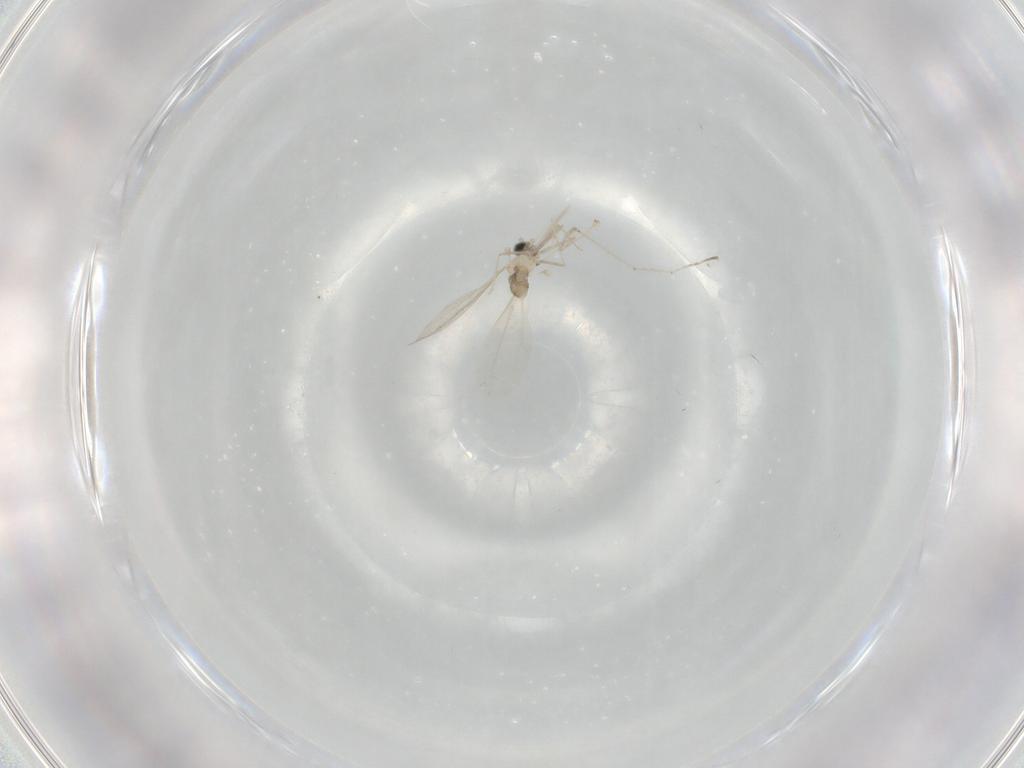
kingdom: Animalia
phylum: Arthropoda
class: Insecta
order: Diptera
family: Cecidomyiidae
